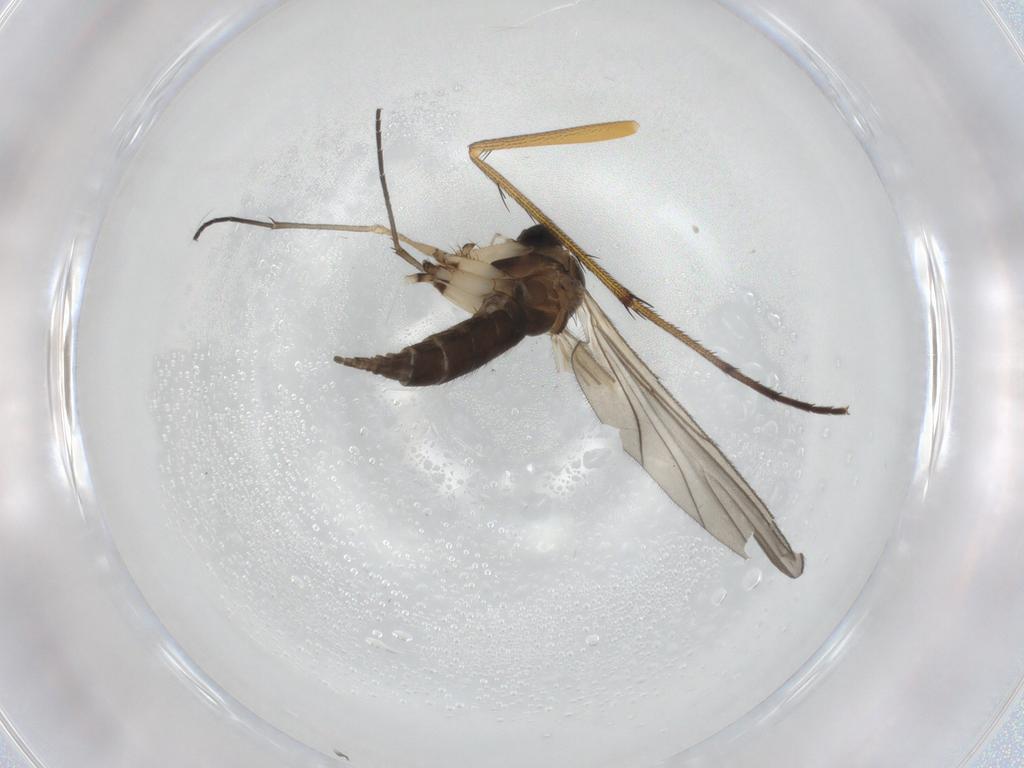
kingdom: Animalia
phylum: Arthropoda
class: Insecta
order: Diptera
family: Sciaridae
